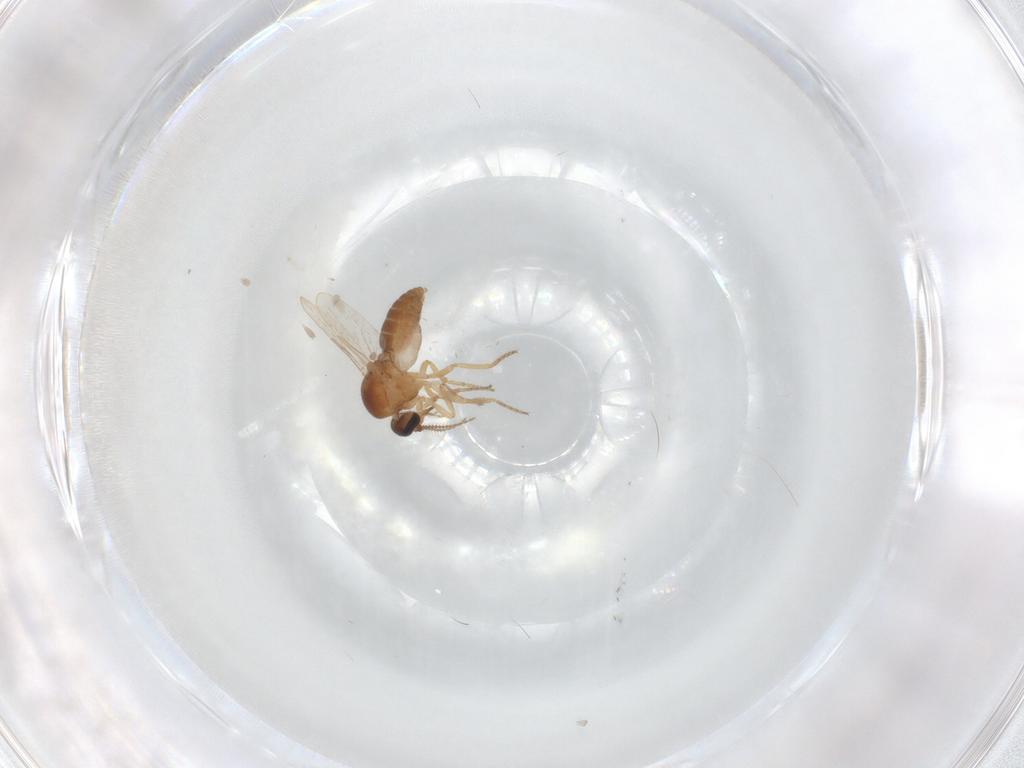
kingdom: Animalia
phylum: Arthropoda
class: Insecta
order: Diptera
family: Ceratopogonidae
